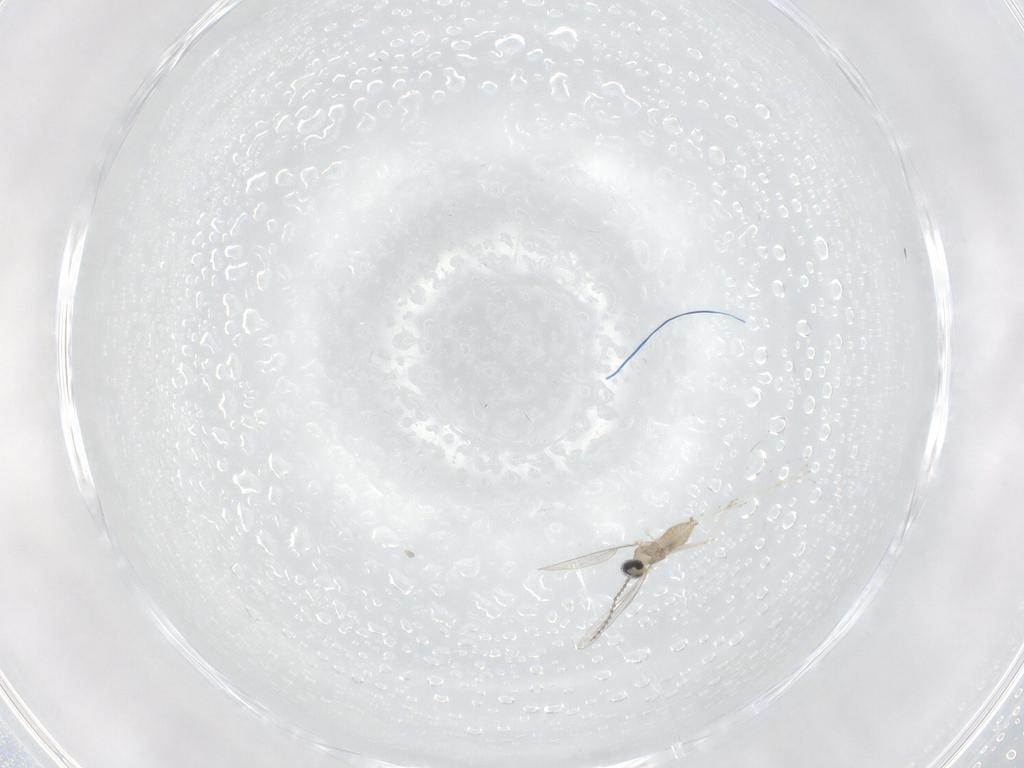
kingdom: Animalia
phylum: Arthropoda
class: Insecta
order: Diptera
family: Cecidomyiidae
